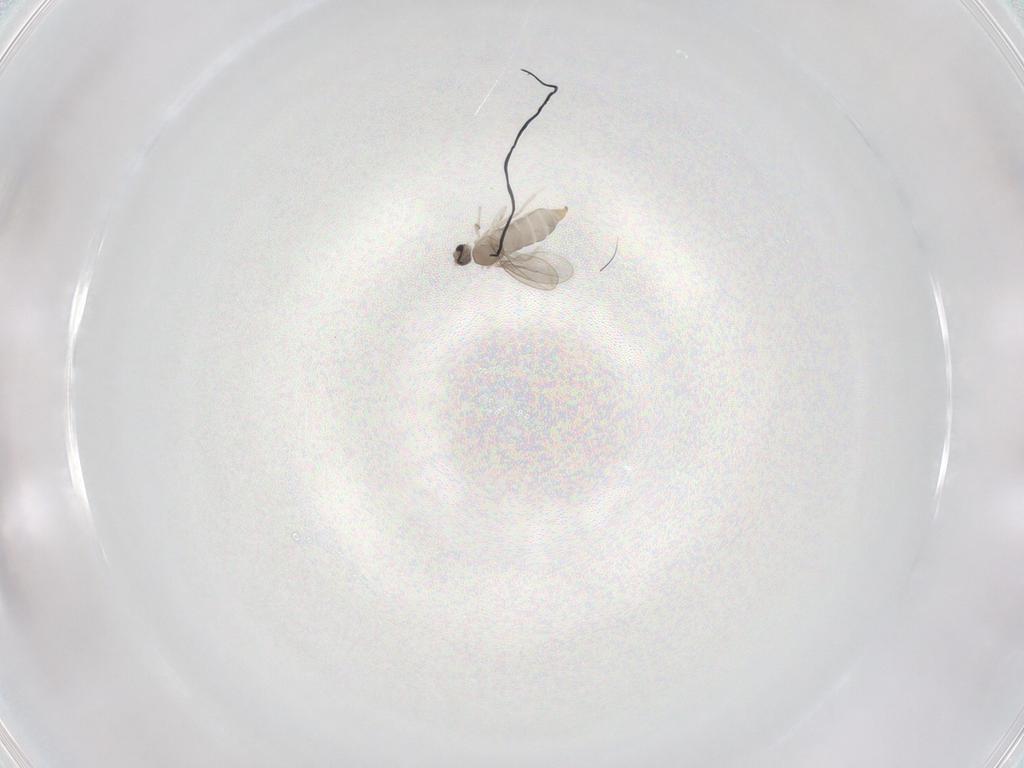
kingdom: Animalia
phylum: Arthropoda
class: Insecta
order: Diptera
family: Cecidomyiidae
